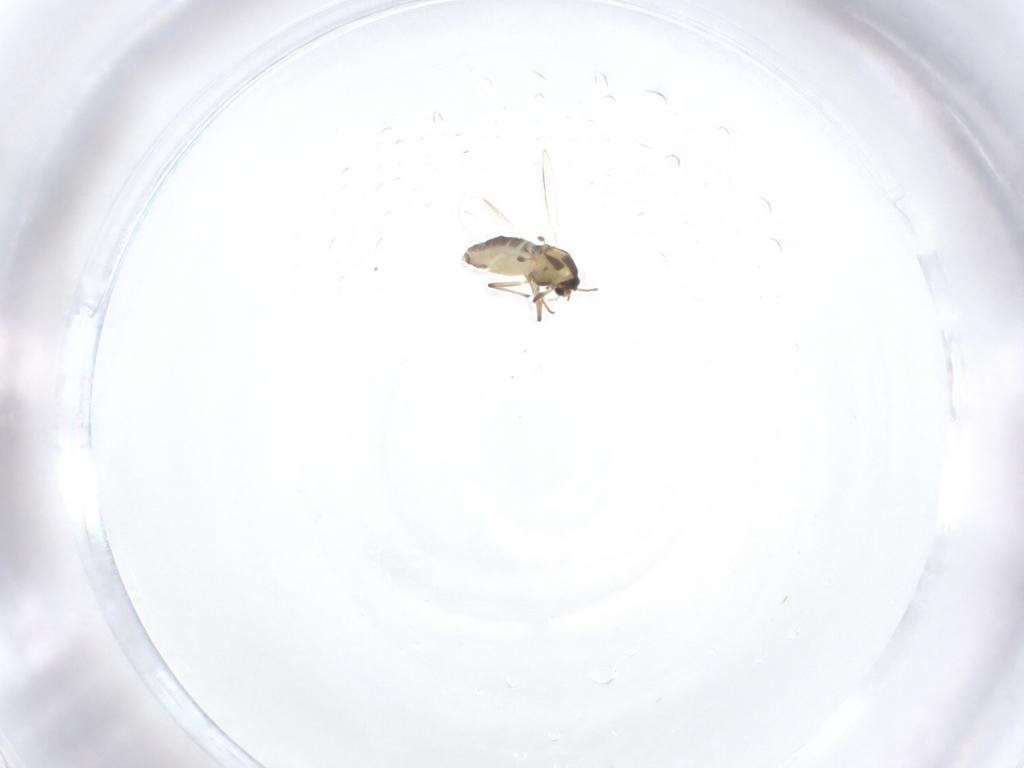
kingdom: Animalia
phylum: Arthropoda
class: Insecta
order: Diptera
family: Chironomidae
